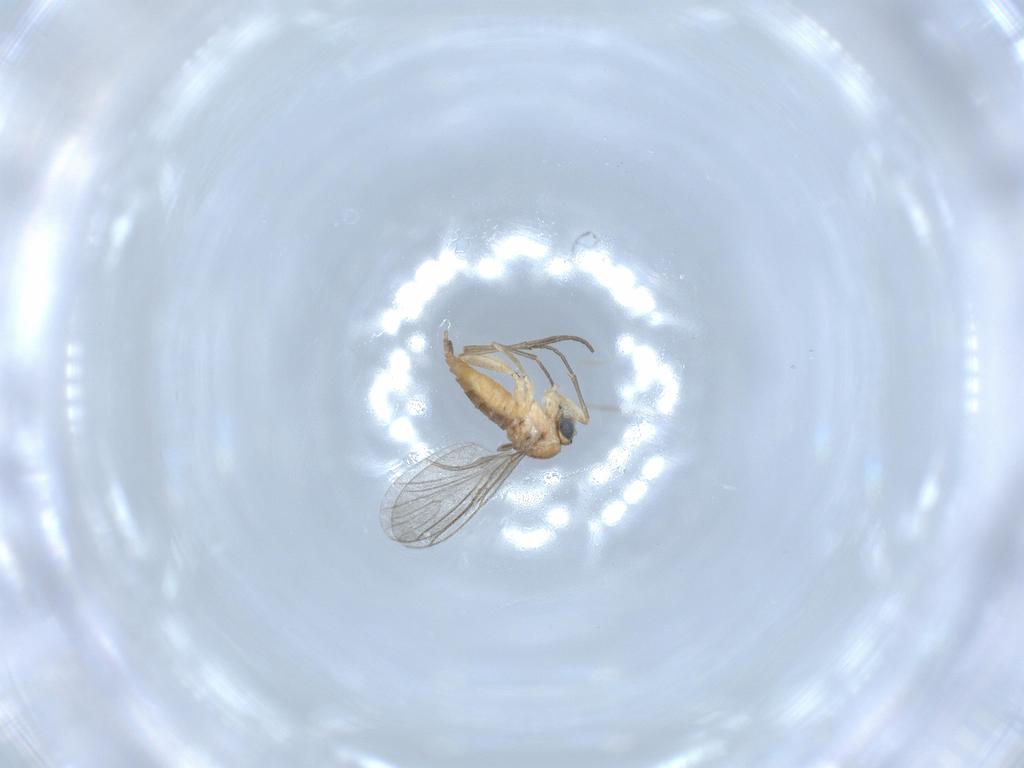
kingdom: Animalia
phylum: Arthropoda
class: Insecta
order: Diptera
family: Sciaridae
